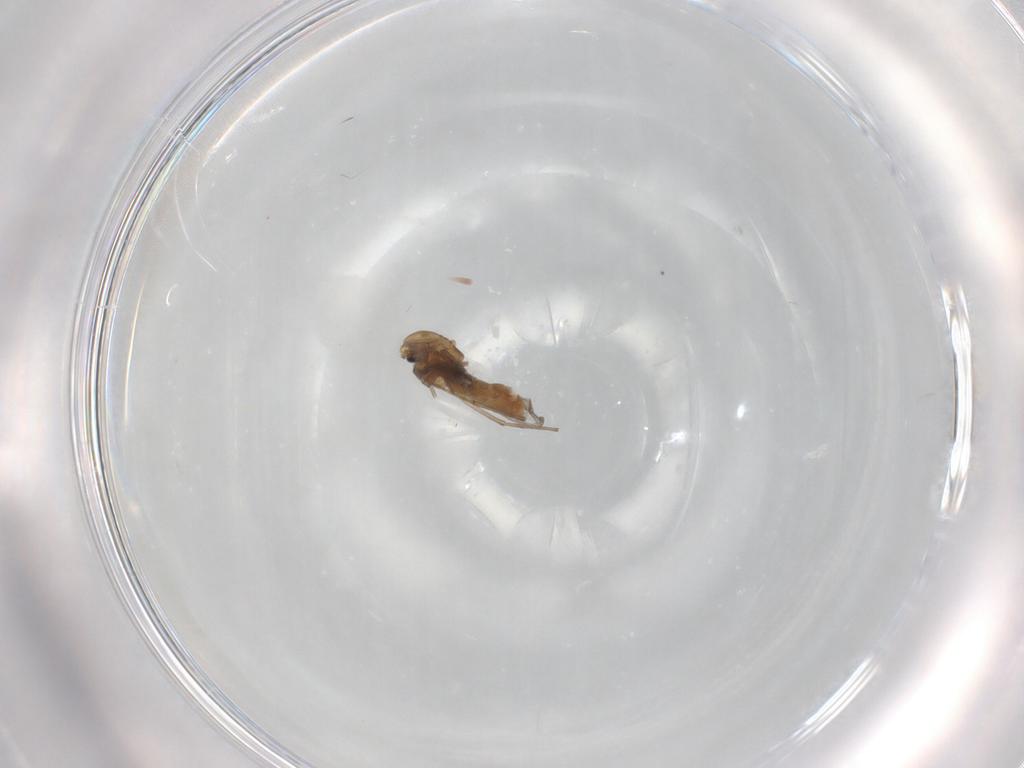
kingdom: Animalia
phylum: Arthropoda
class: Insecta
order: Diptera
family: Chironomidae
